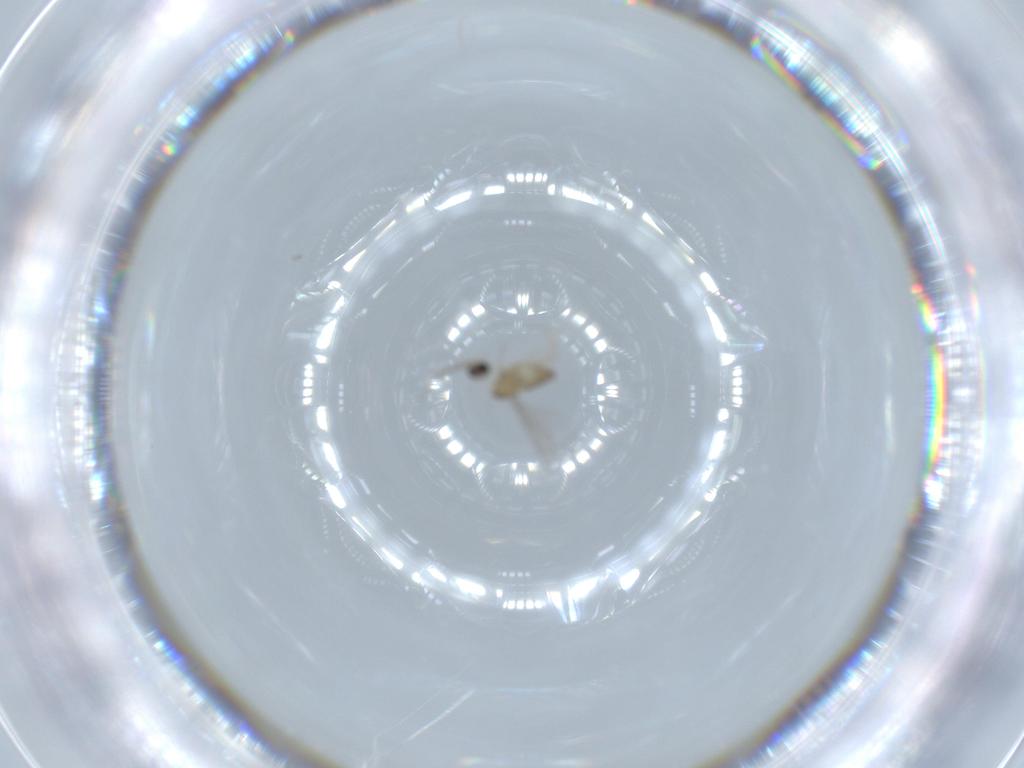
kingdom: Animalia
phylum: Arthropoda
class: Insecta
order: Diptera
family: Cecidomyiidae
